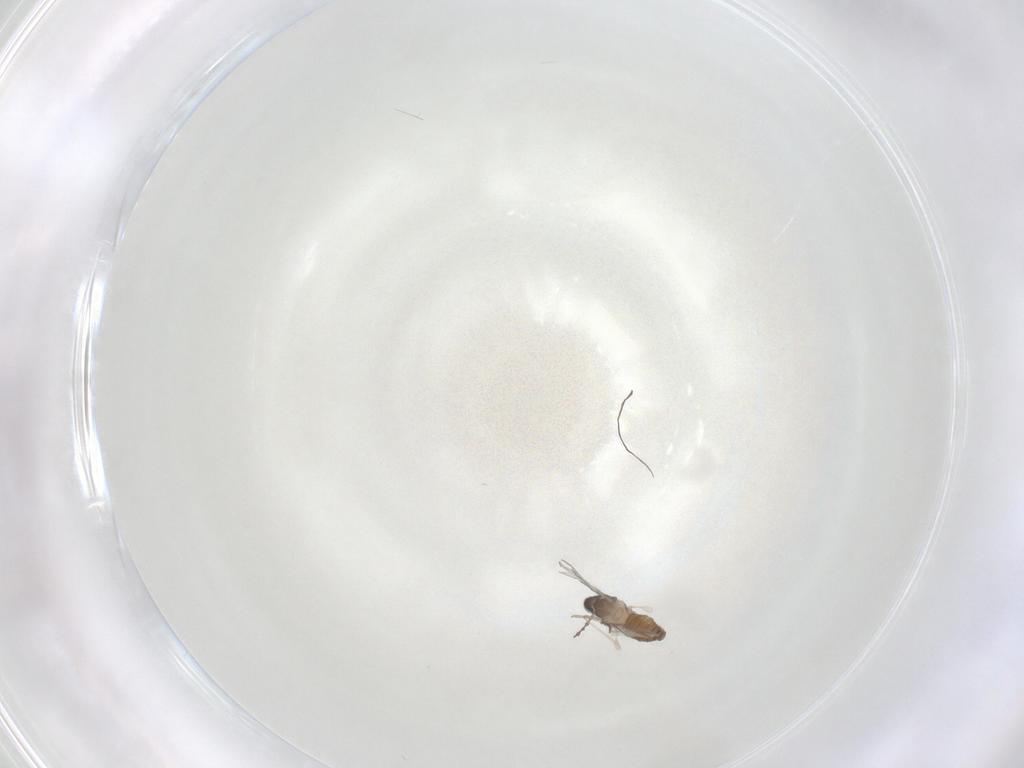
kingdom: Animalia
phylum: Arthropoda
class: Insecta
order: Diptera
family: Cecidomyiidae
